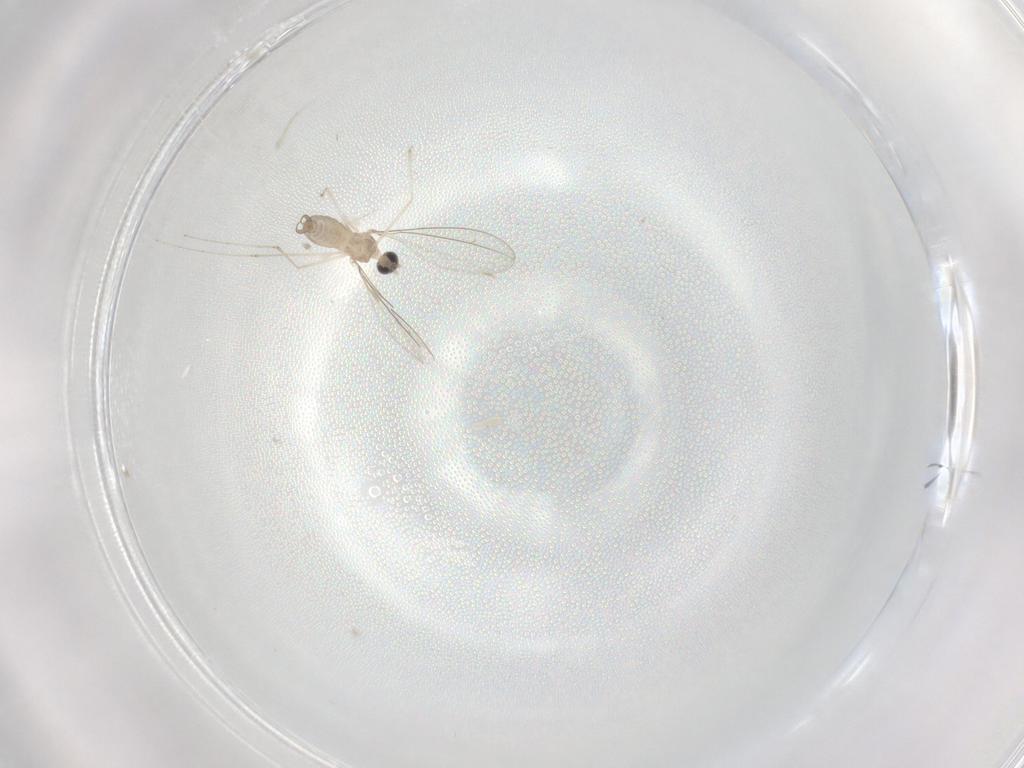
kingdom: Animalia
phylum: Arthropoda
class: Insecta
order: Diptera
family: Cecidomyiidae
